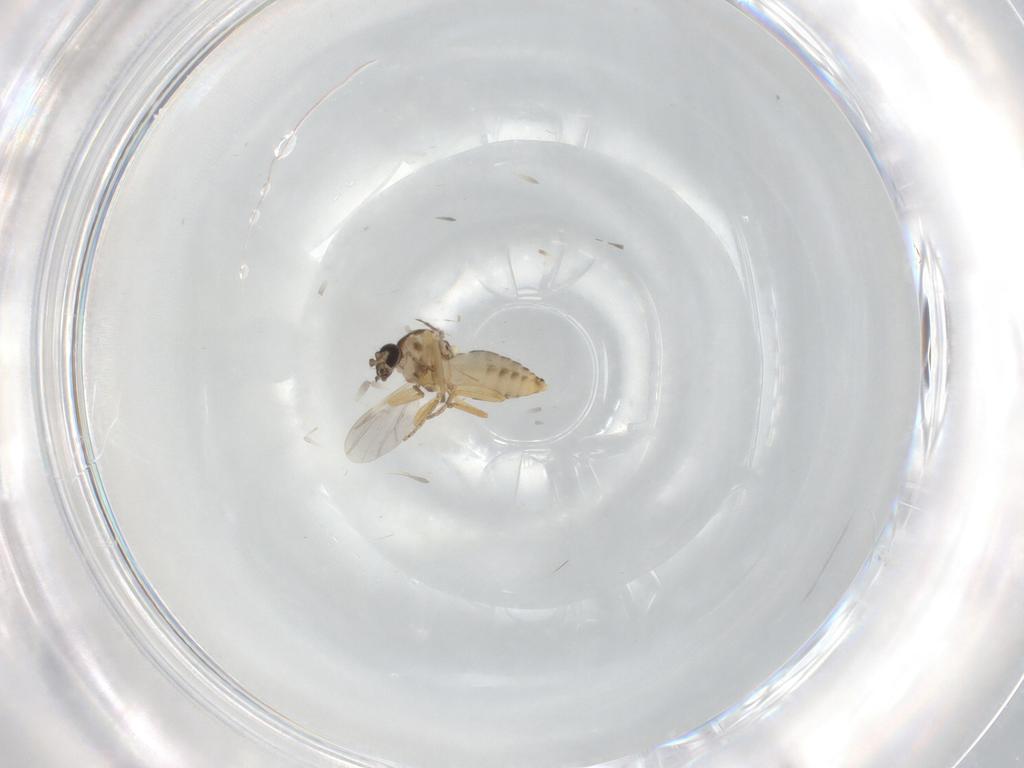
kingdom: Animalia
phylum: Arthropoda
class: Insecta
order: Diptera
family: Ceratopogonidae
